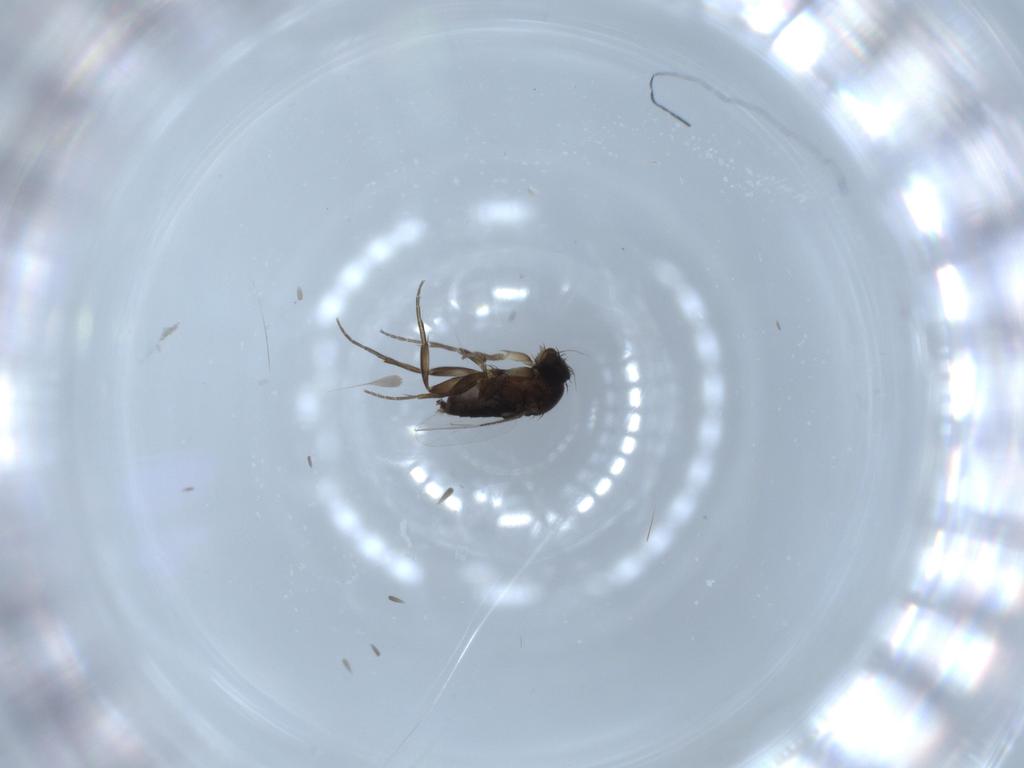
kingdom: Animalia
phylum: Arthropoda
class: Insecta
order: Diptera
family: Phoridae
